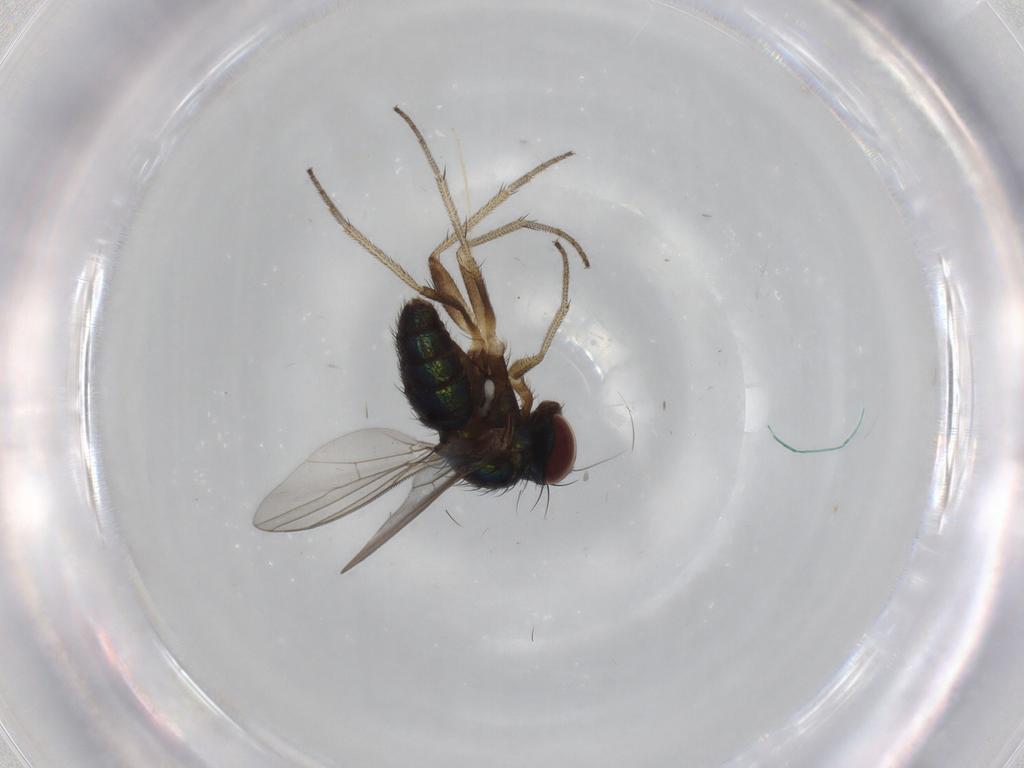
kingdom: Animalia
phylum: Arthropoda
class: Insecta
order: Diptera
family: Chironomidae
